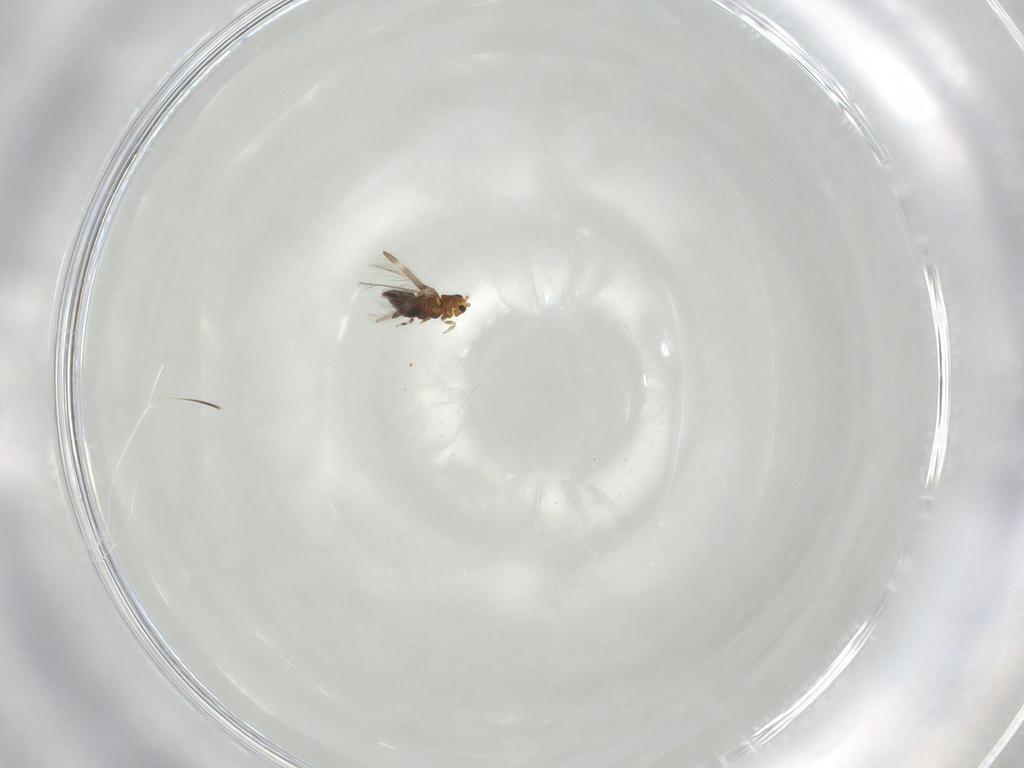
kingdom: Animalia
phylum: Arthropoda
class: Insecta
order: Thysanoptera
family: Thripidae
